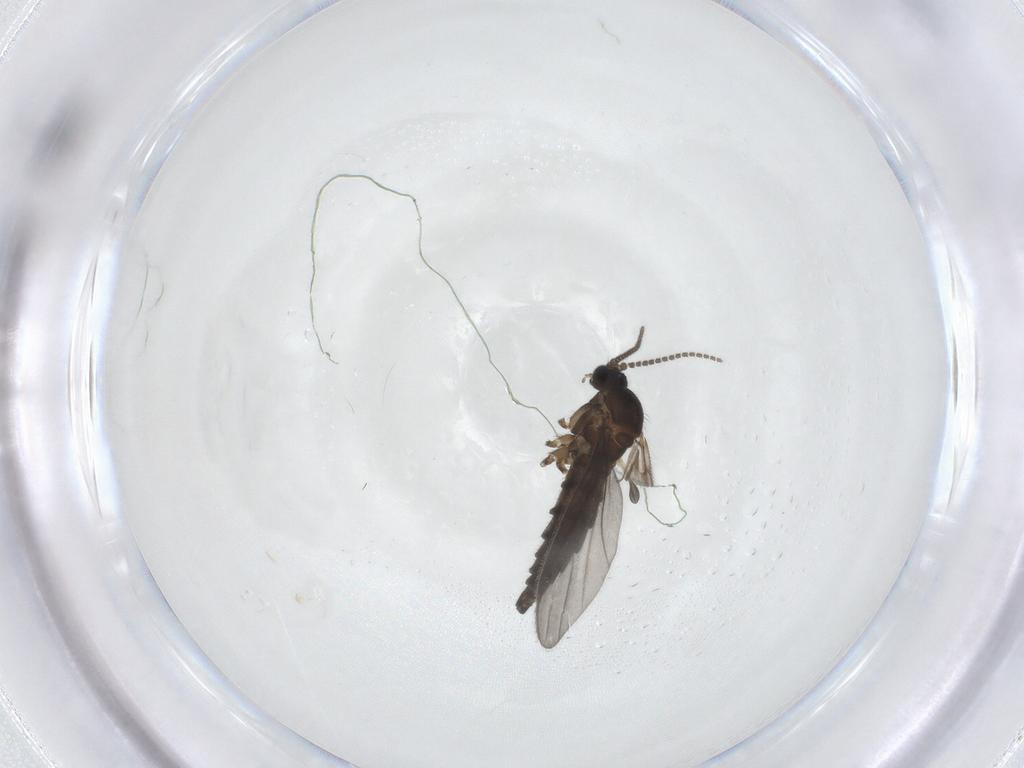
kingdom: Animalia
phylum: Arthropoda
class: Insecta
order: Diptera
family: Sciaridae
